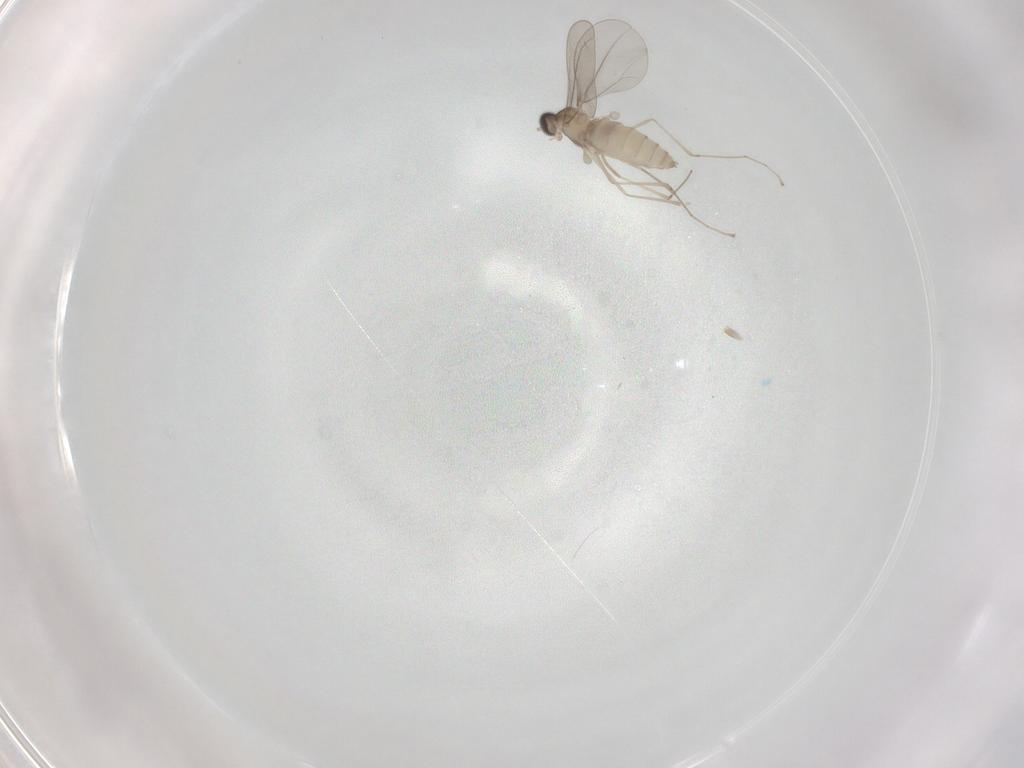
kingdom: Animalia
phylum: Arthropoda
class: Insecta
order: Diptera
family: Cecidomyiidae
